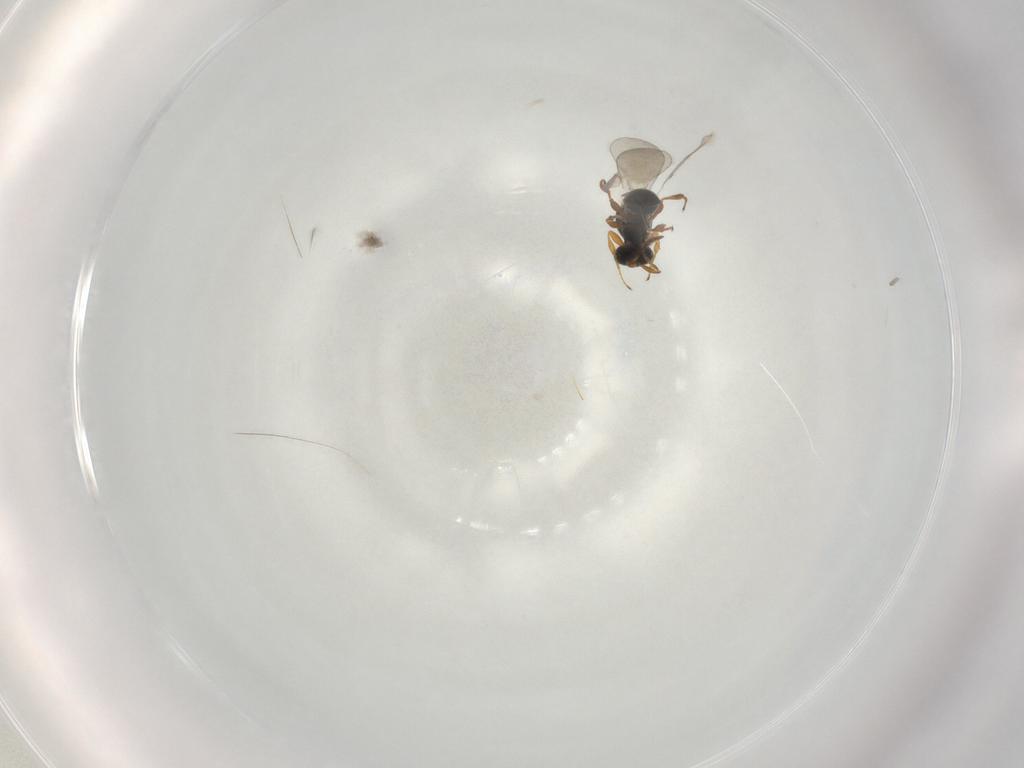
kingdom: Animalia
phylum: Arthropoda
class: Insecta
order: Hymenoptera
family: Platygastridae
